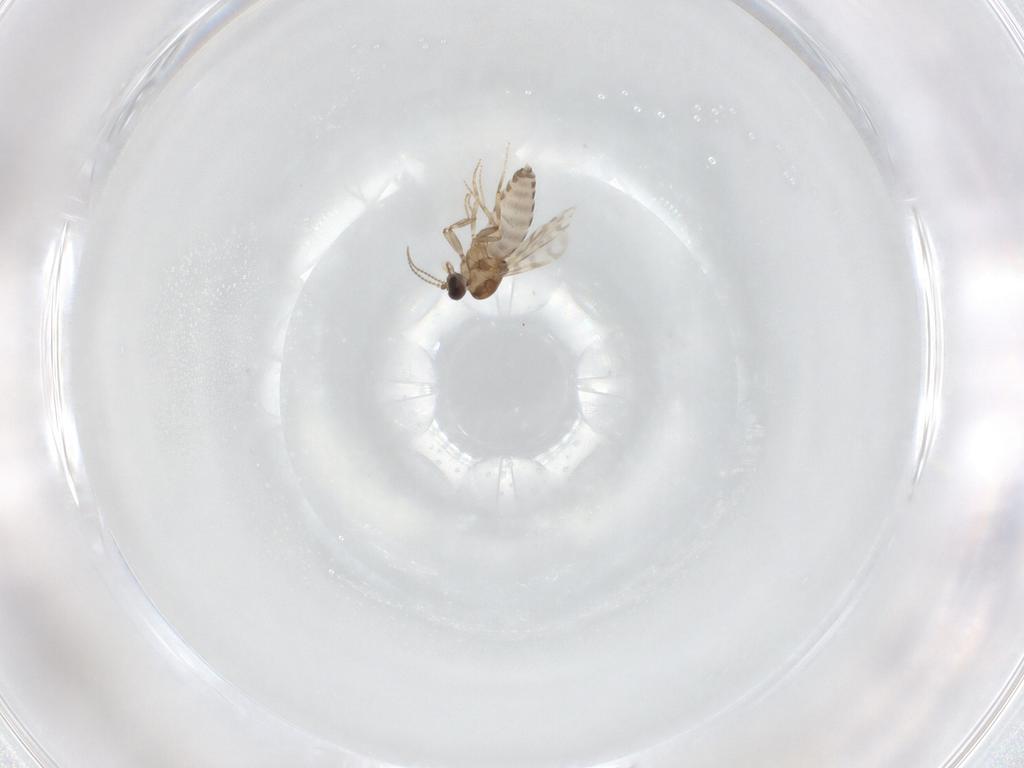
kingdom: Animalia
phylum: Arthropoda
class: Insecta
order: Diptera
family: Ceratopogonidae
